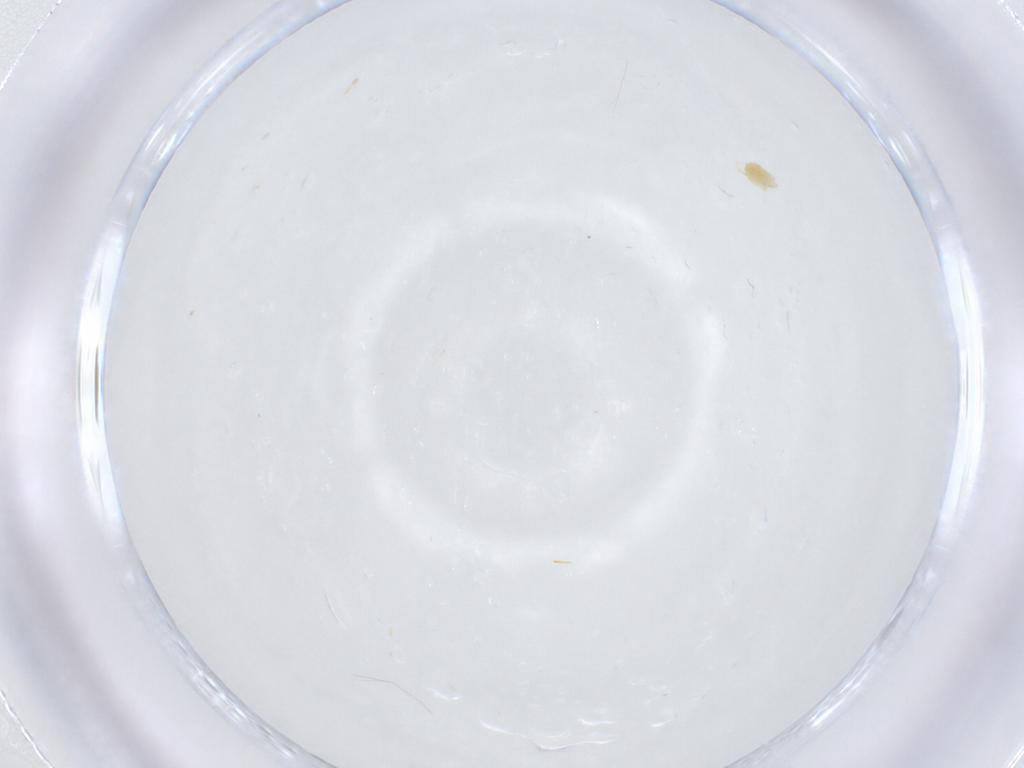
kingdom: Animalia
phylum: Arthropoda
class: Arachnida
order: Trombidiformes
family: Tetranychidae
